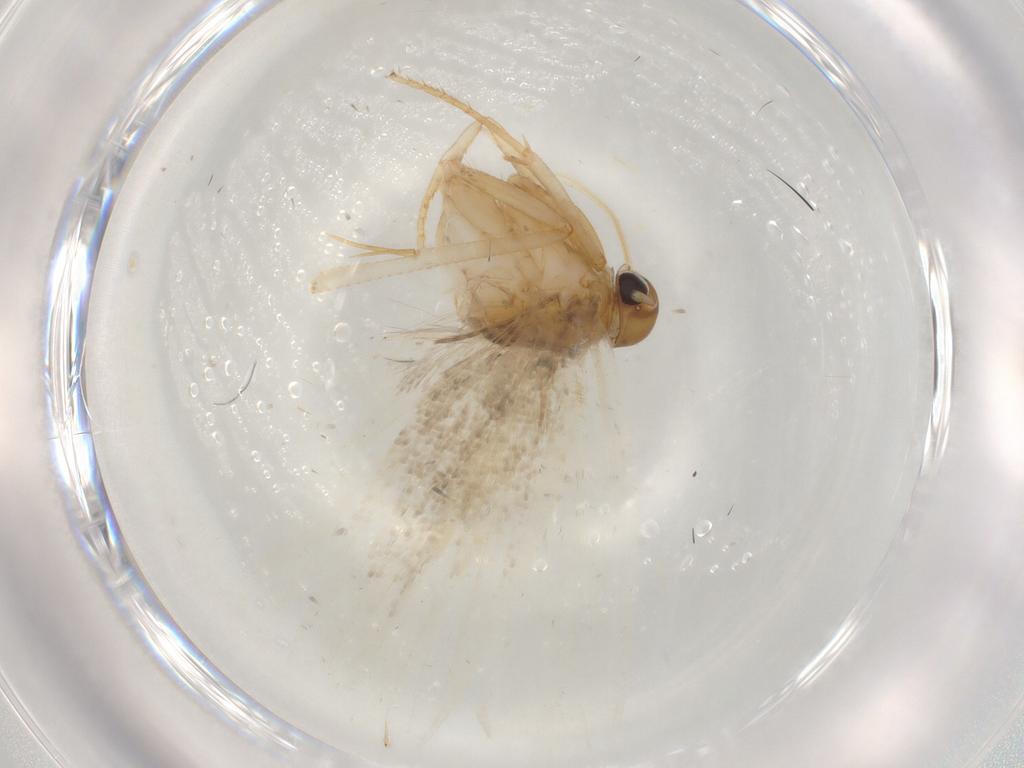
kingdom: Animalia
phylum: Arthropoda
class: Insecta
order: Lepidoptera
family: Gelechiidae
